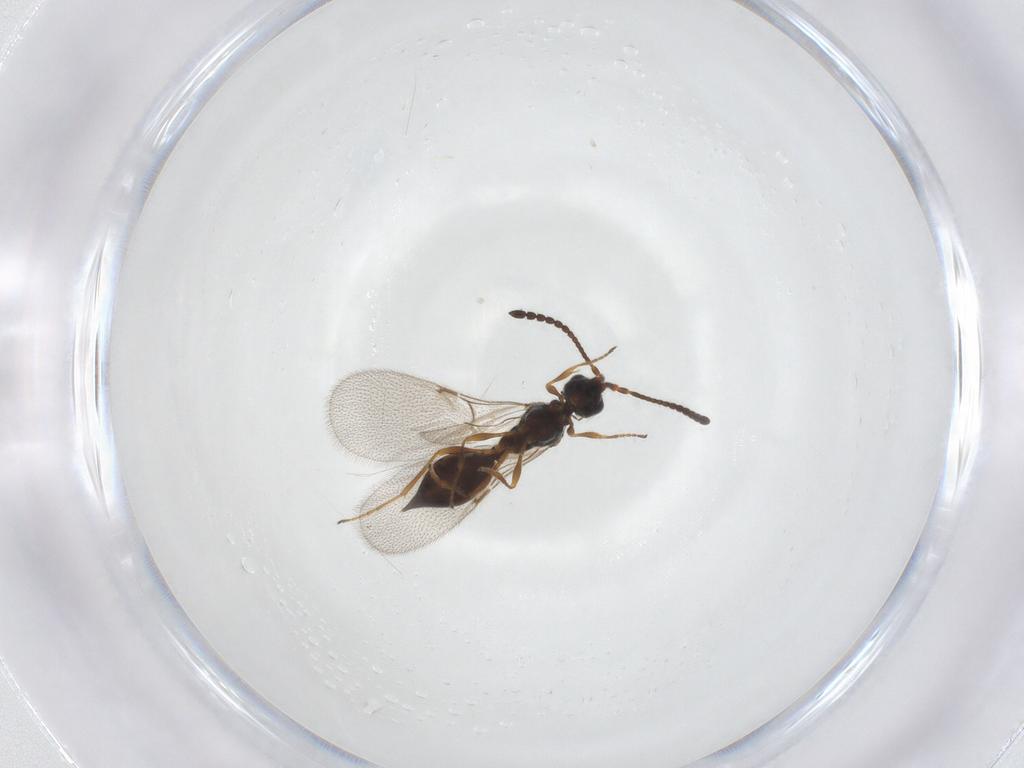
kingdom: Animalia
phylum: Arthropoda
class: Insecta
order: Hymenoptera
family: Diapriidae
